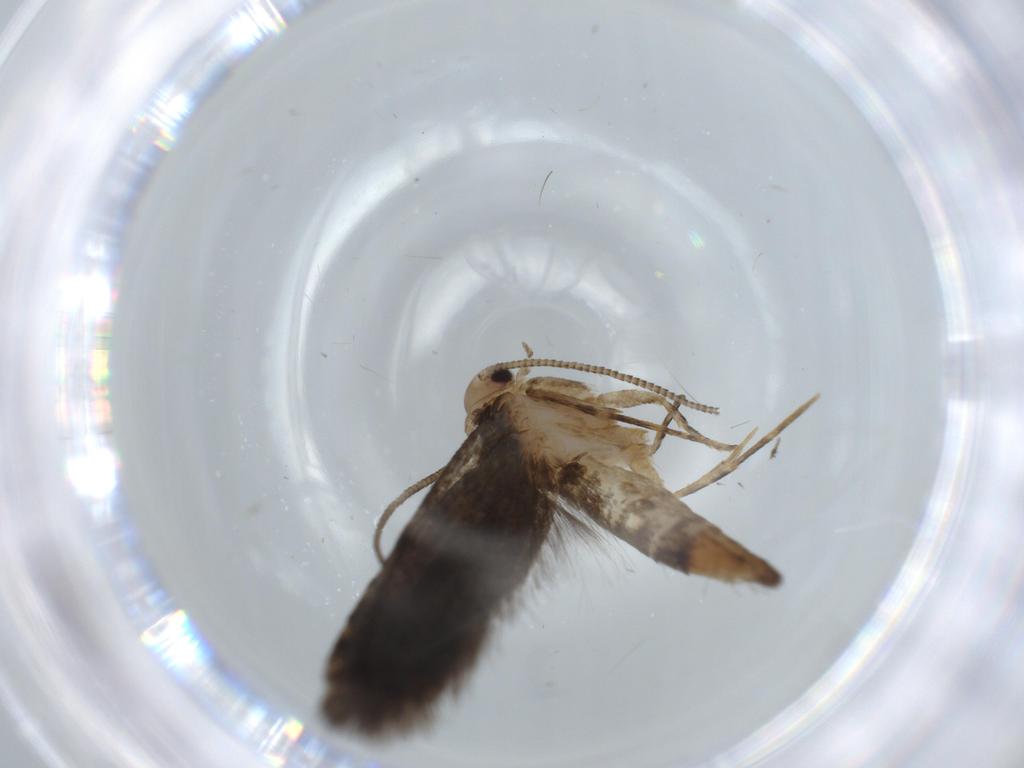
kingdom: Animalia
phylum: Arthropoda
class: Insecta
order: Lepidoptera
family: Tineidae
